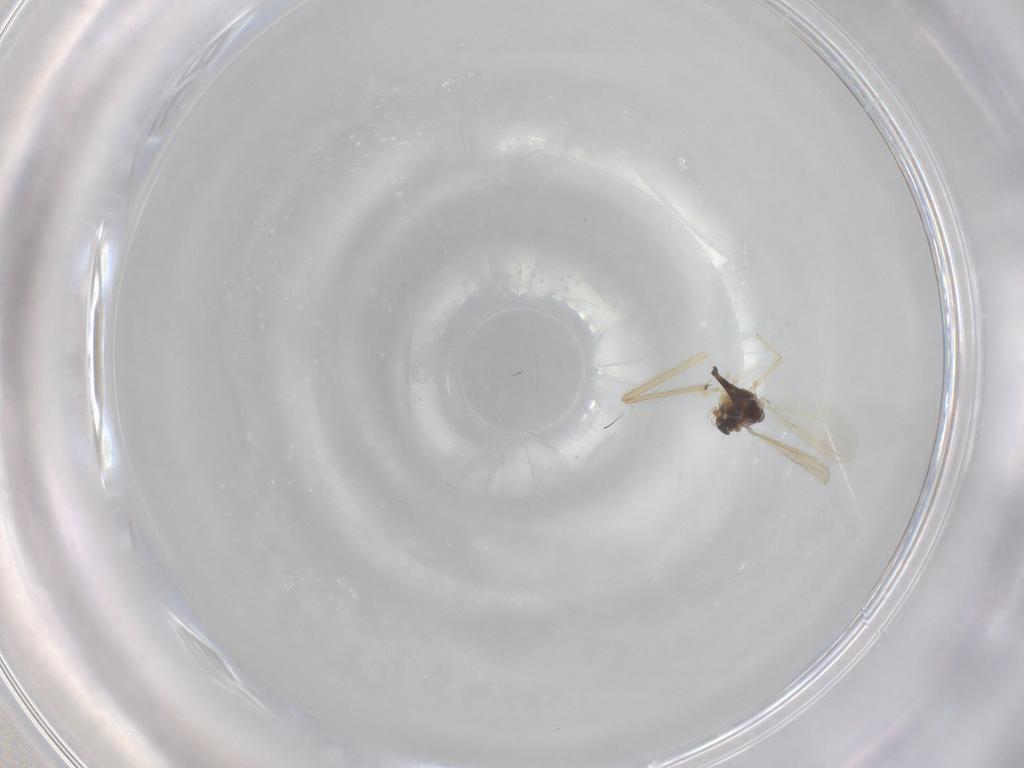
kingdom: Animalia
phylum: Arthropoda
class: Insecta
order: Diptera
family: Chironomidae
